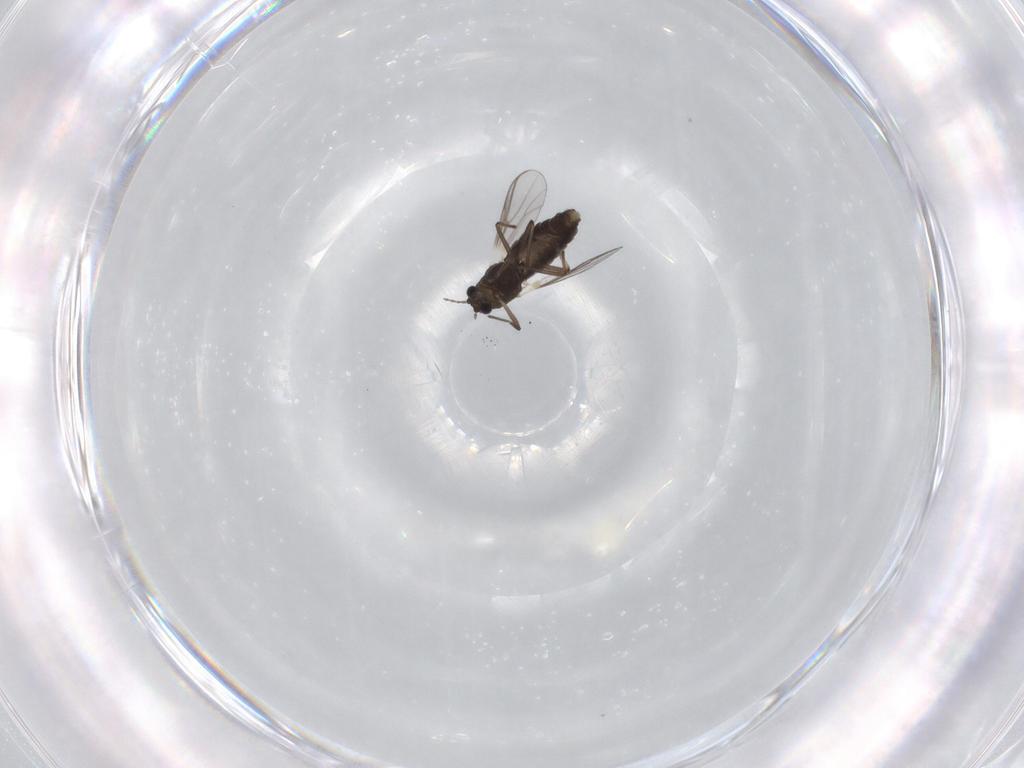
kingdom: Animalia
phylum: Arthropoda
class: Insecta
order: Diptera
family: Chironomidae
